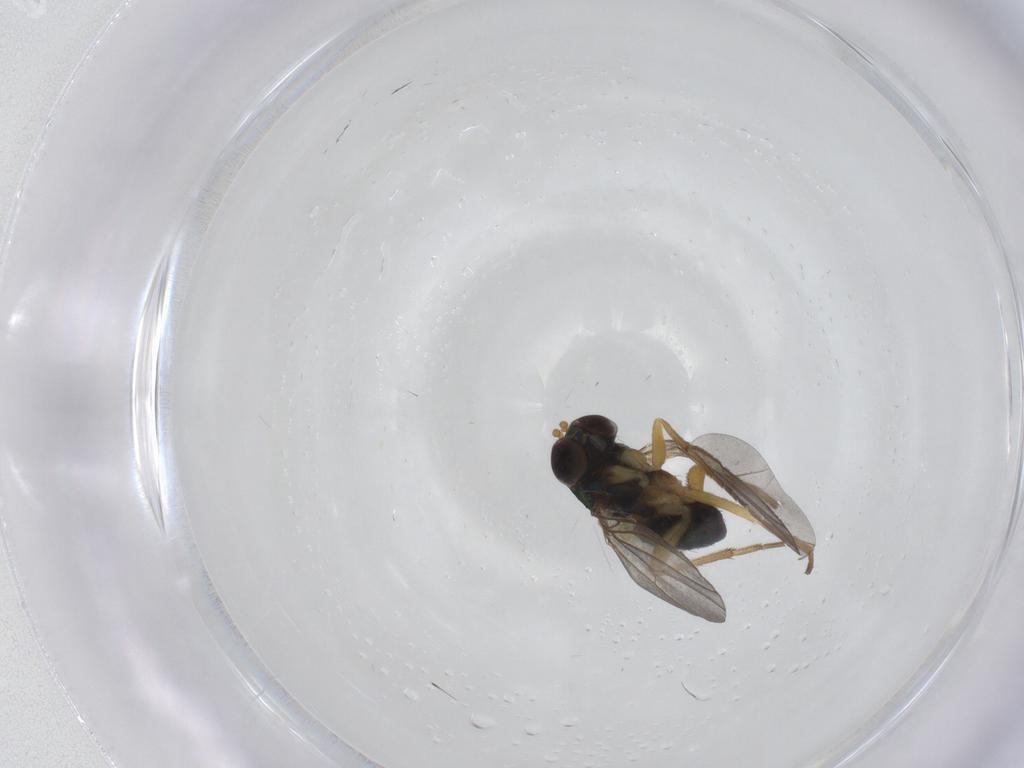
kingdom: Animalia
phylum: Arthropoda
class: Insecta
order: Diptera
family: Dolichopodidae
